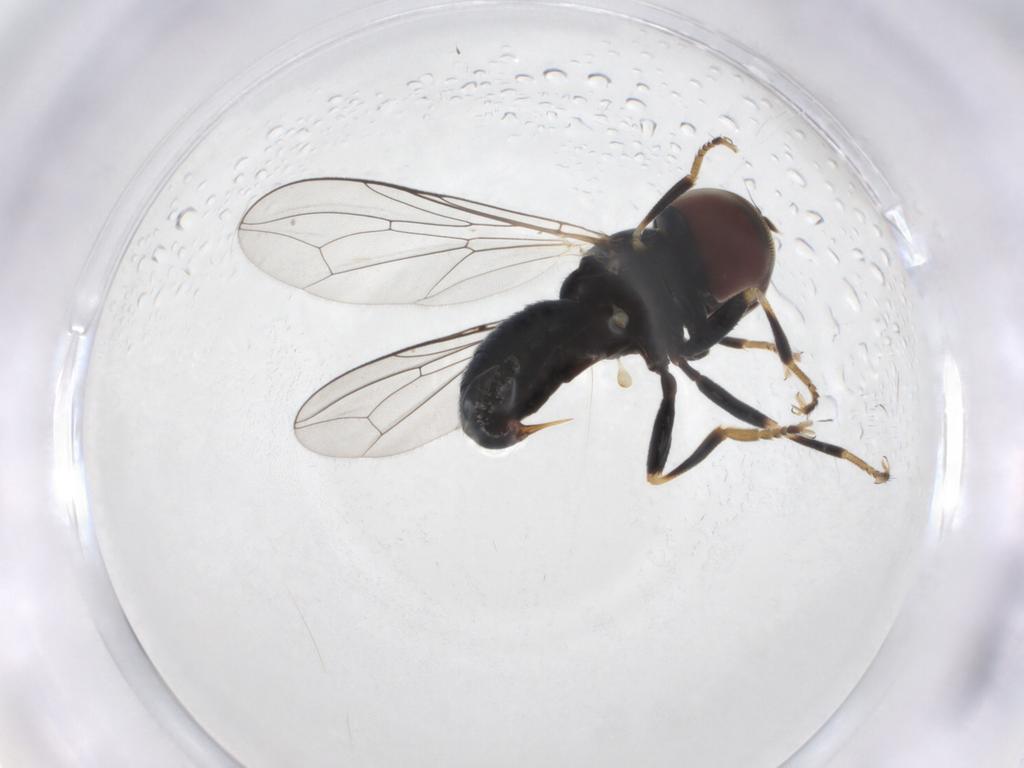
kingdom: Animalia
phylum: Arthropoda
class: Insecta
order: Diptera
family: Pipunculidae
